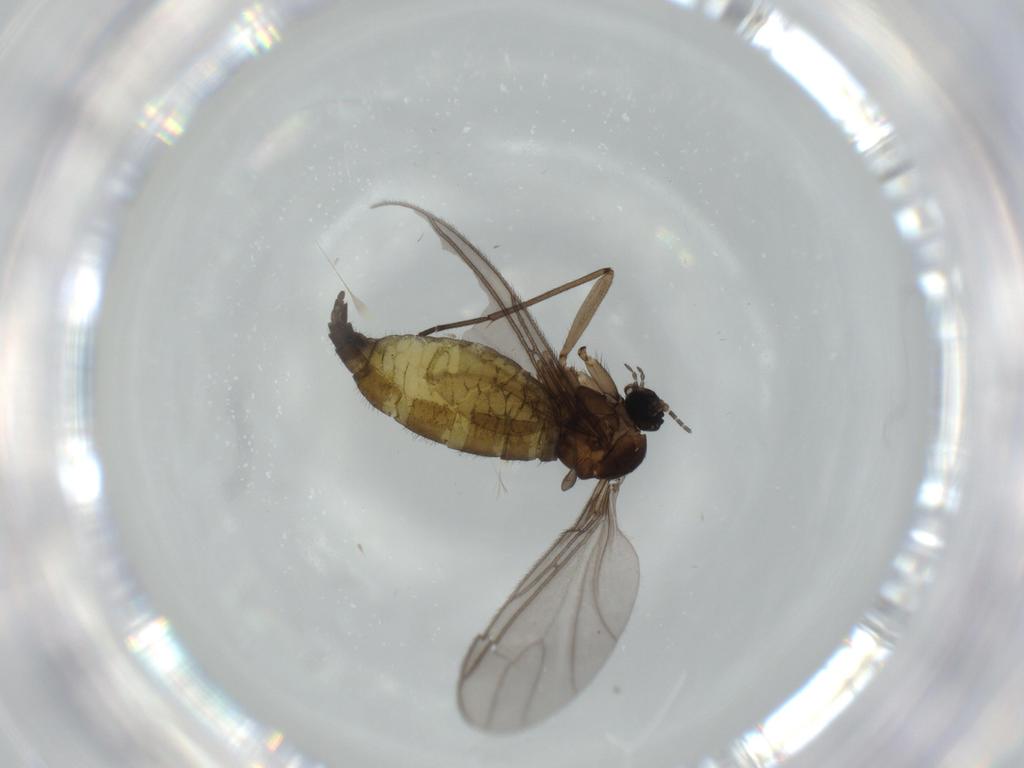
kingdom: Animalia
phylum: Arthropoda
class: Insecta
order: Diptera
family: Sciaridae
